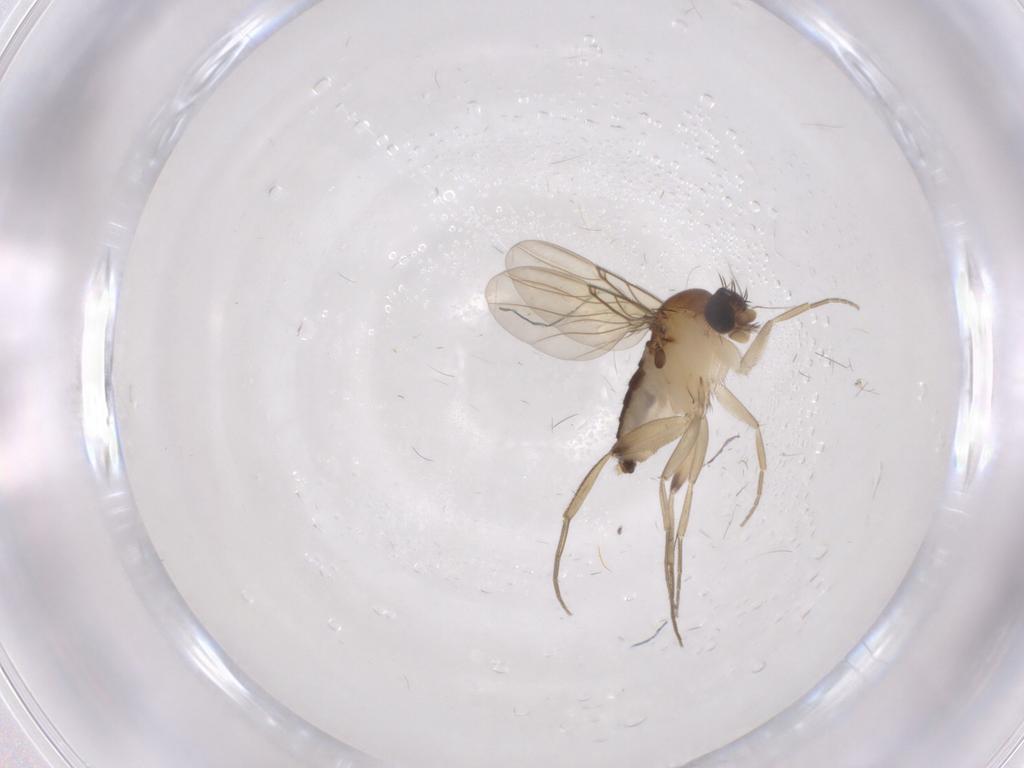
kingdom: Animalia
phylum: Arthropoda
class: Insecta
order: Diptera
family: Phoridae
